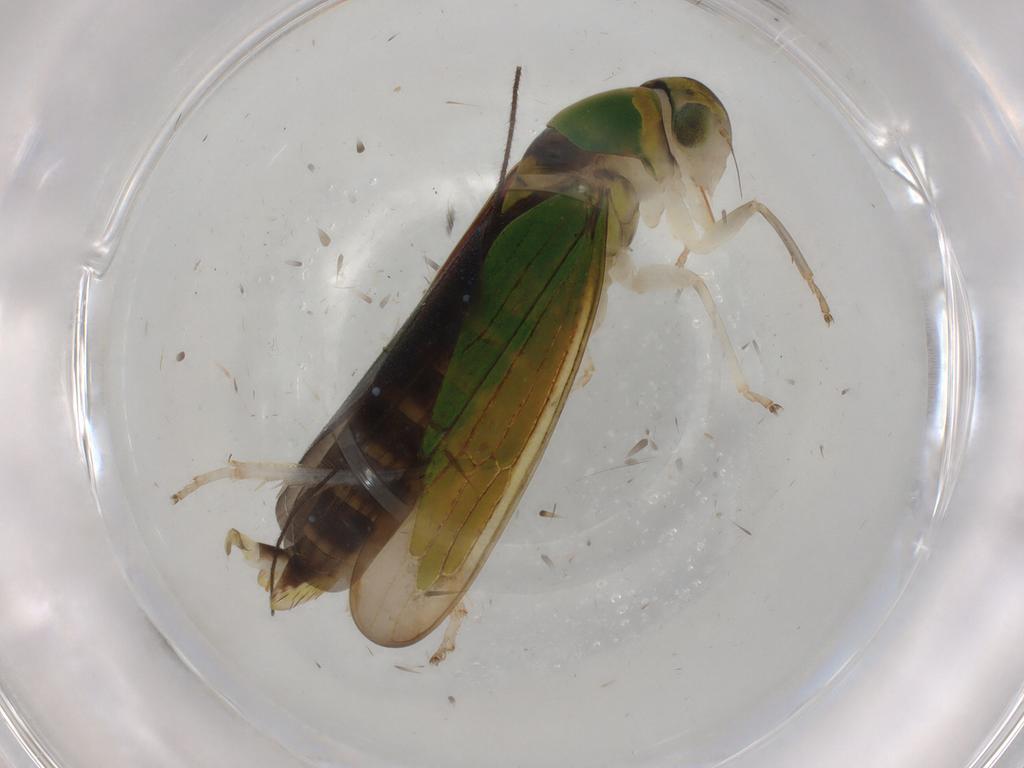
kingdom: Animalia
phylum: Arthropoda
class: Insecta
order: Hemiptera
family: Cicadellidae
